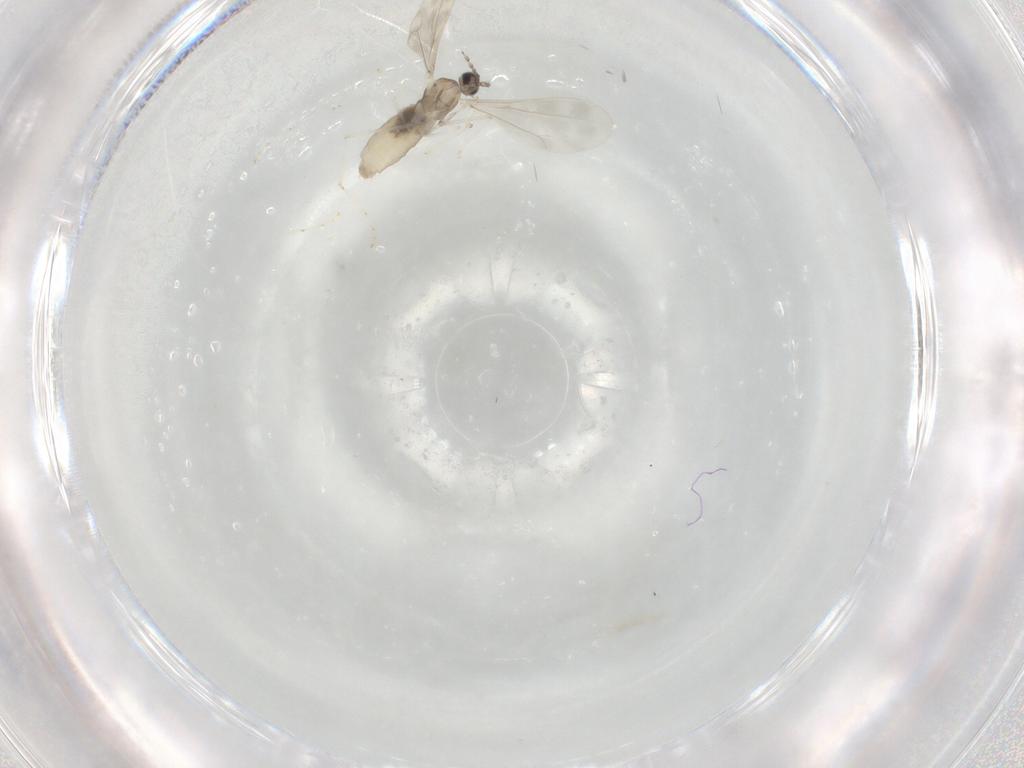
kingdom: Animalia
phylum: Arthropoda
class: Insecta
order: Diptera
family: Cecidomyiidae
